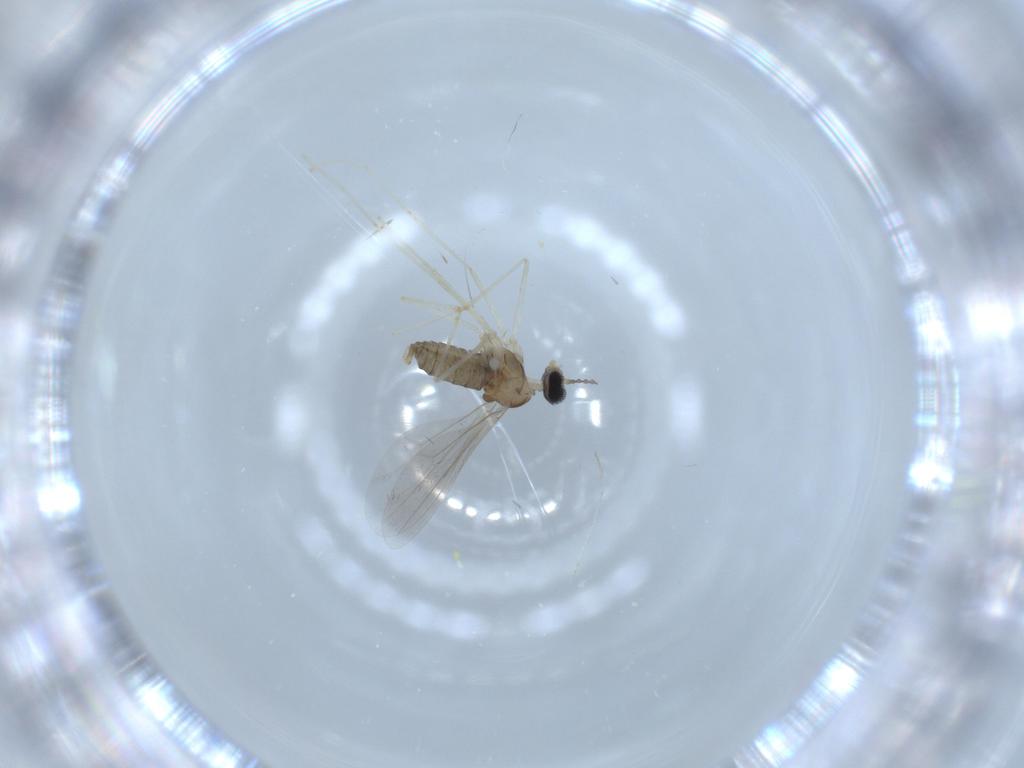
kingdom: Animalia
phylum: Arthropoda
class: Insecta
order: Diptera
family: Cecidomyiidae
